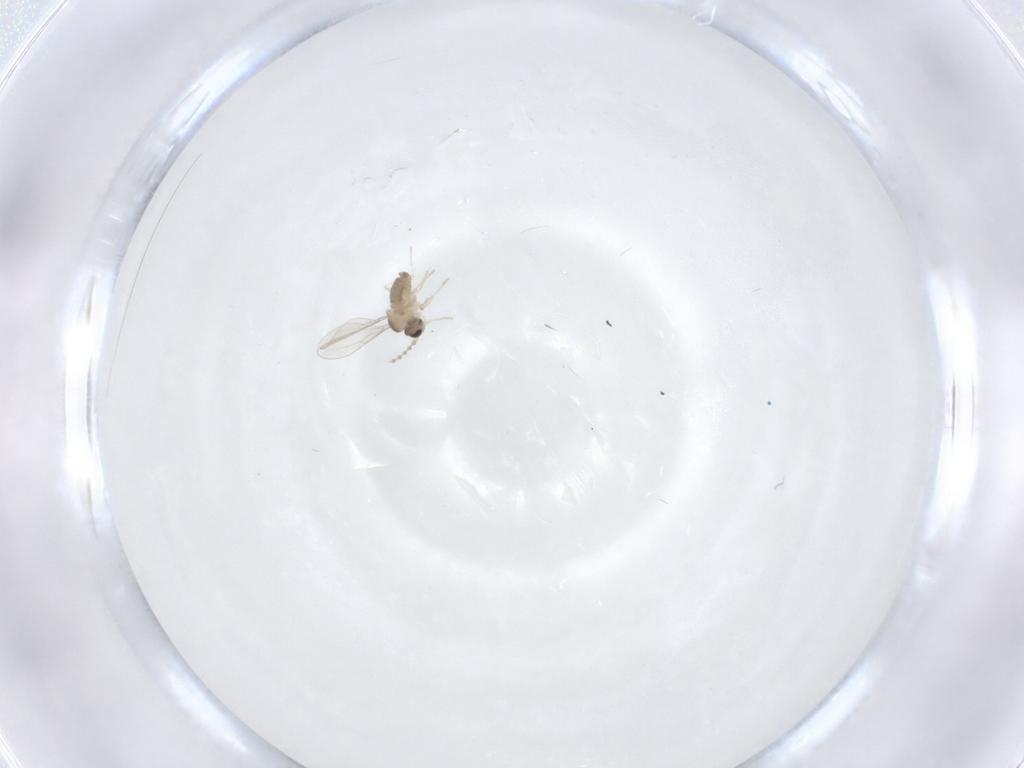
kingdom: Animalia
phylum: Arthropoda
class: Insecta
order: Diptera
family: Cecidomyiidae
